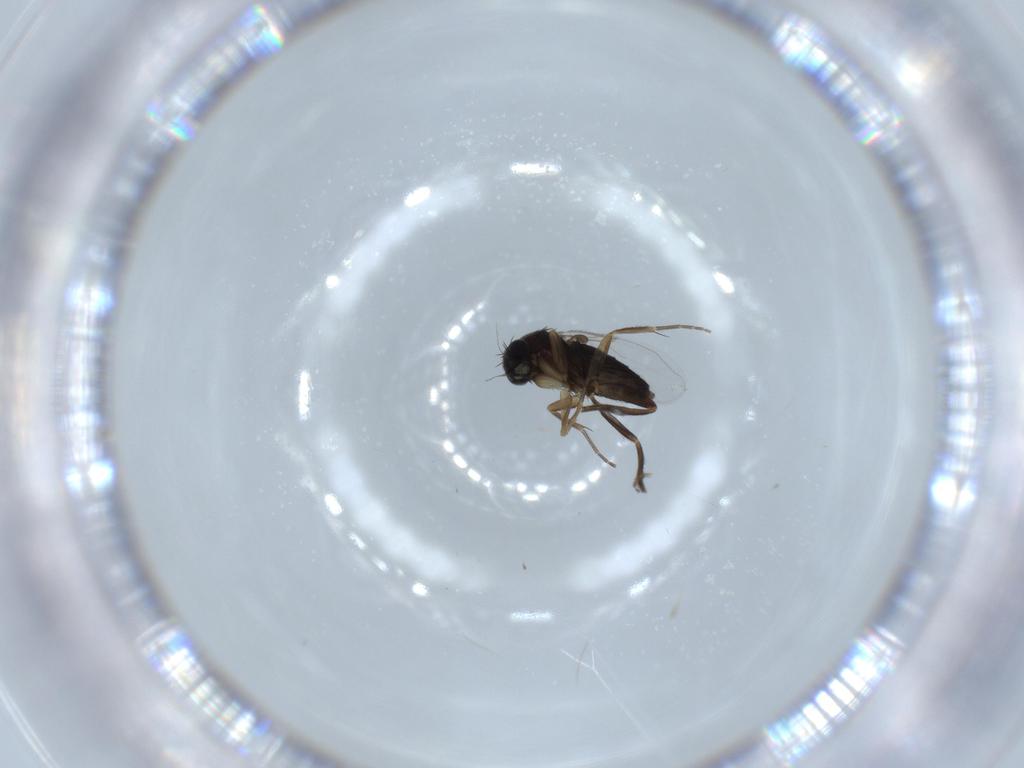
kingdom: Animalia
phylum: Arthropoda
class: Insecta
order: Diptera
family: Phoridae
